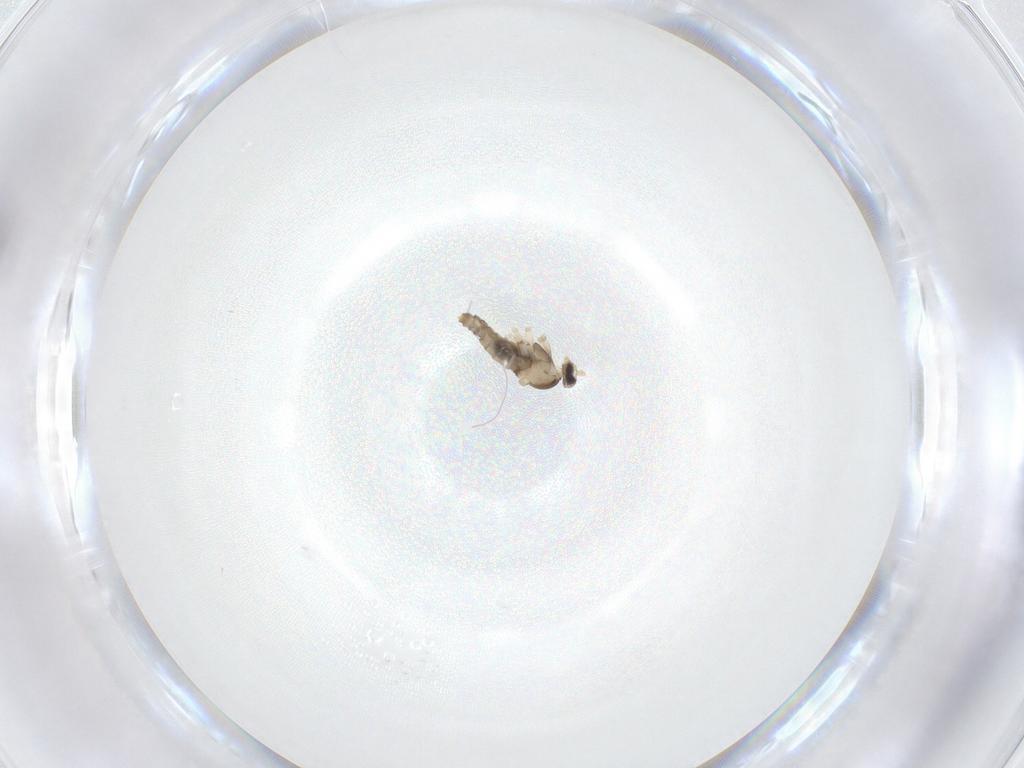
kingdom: Animalia
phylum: Arthropoda
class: Insecta
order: Diptera
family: Cecidomyiidae
